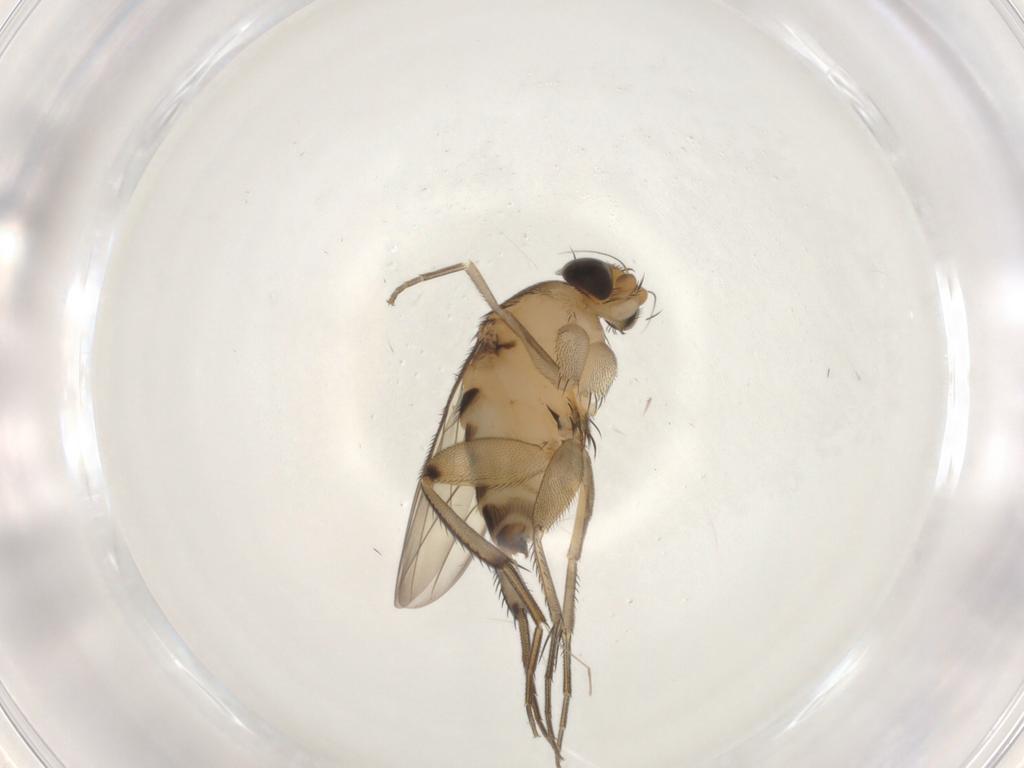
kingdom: Animalia
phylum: Arthropoda
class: Insecta
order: Diptera
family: Phoridae
